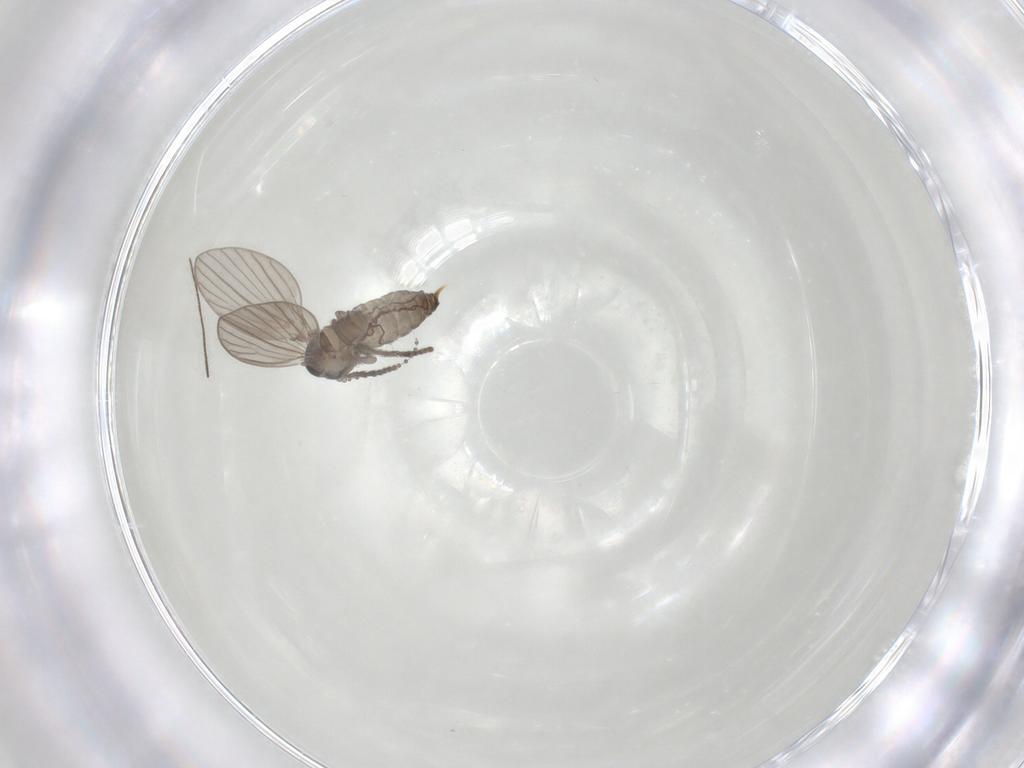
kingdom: Animalia
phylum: Arthropoda
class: Insecta
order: Diptera
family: Psychodidae
